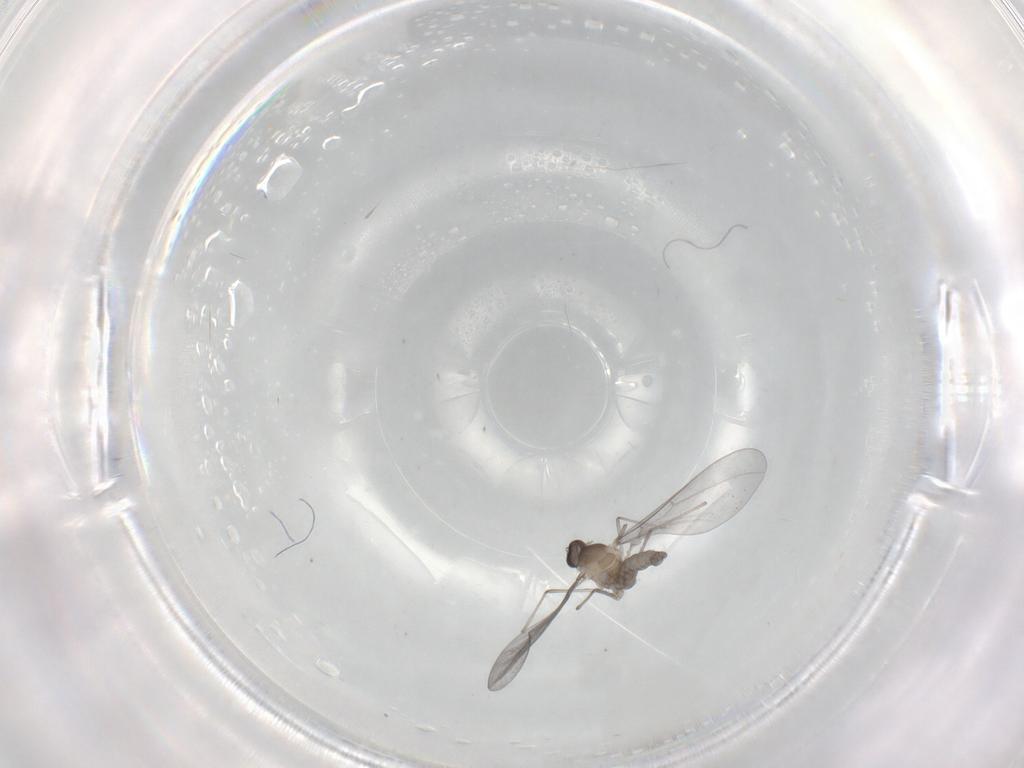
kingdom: Animalia
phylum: Arthropoda
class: Insecta
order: Diptera
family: Cecidomyiidae
